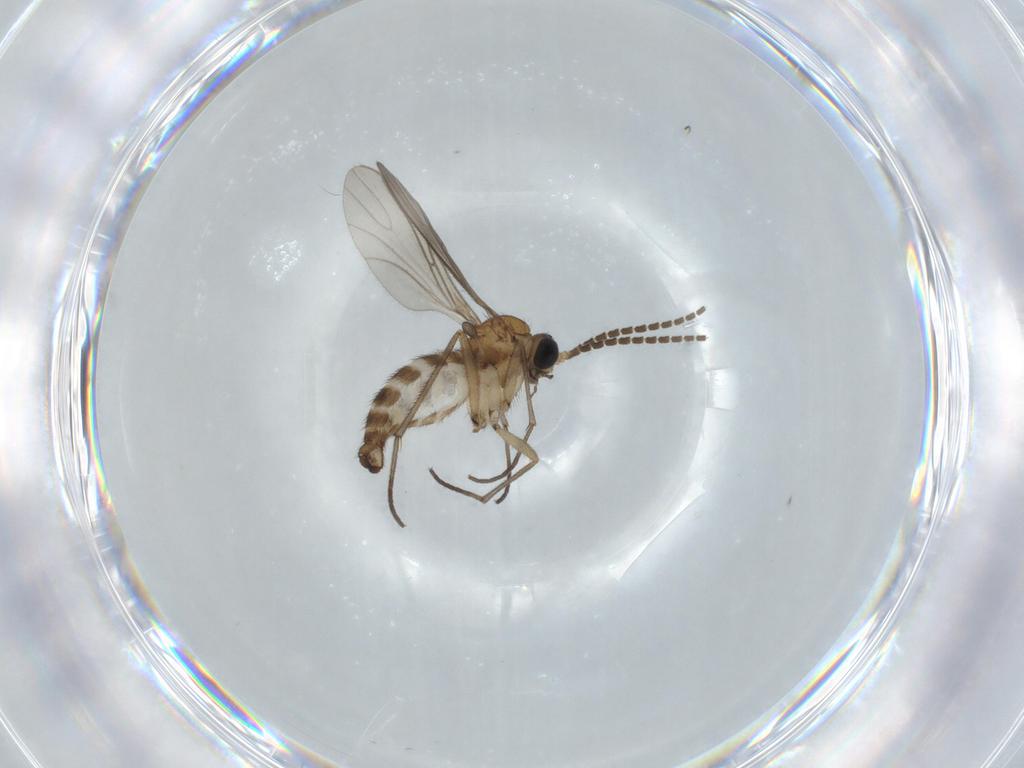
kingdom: Animalia
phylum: Arthropoda
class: Insecta
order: Diptera
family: Sciaridae
